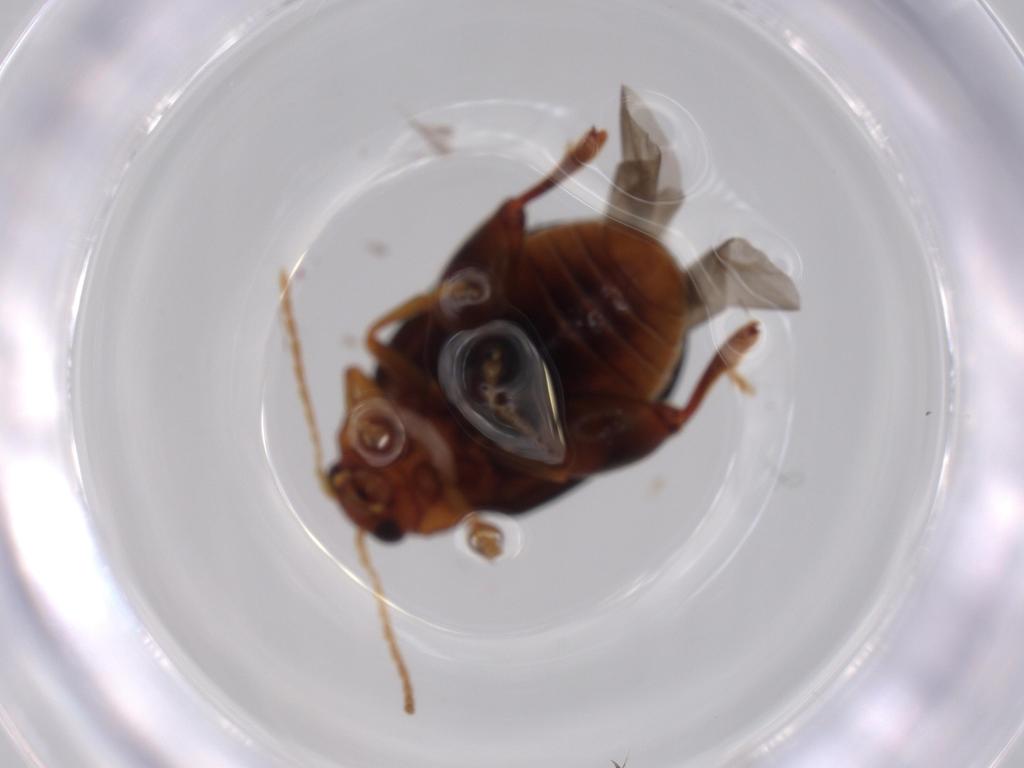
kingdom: Animalia
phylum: Arthropoda
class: Insecta
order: Coleoptera
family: Chrysomelidae
